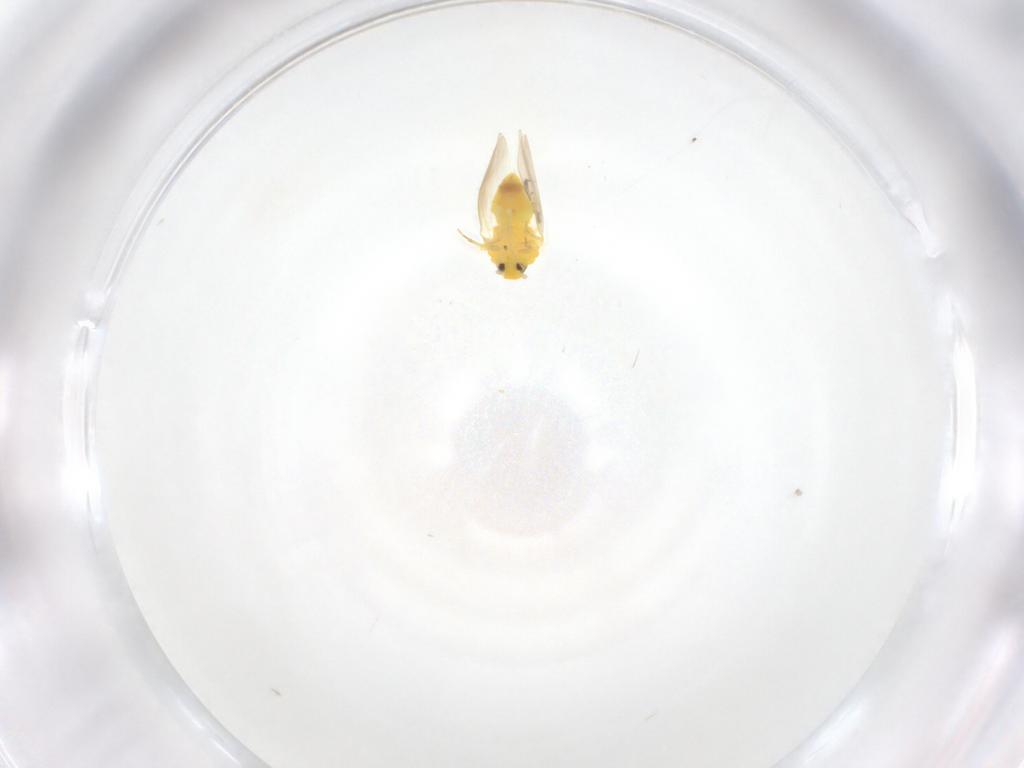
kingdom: Animalia
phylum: Arthropoda
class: Insecta
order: Hemiptera
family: Aleyrodidae
